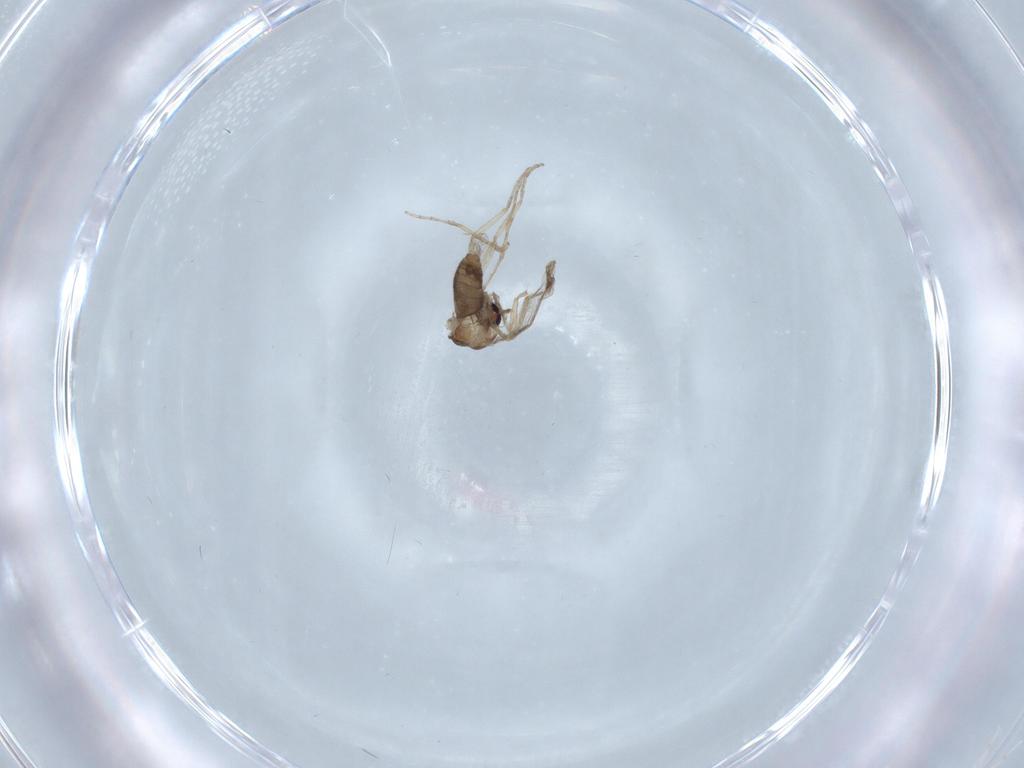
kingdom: Animalia
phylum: Arthropoda
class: Insecta
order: Diptera
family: Ceratopogonidae
